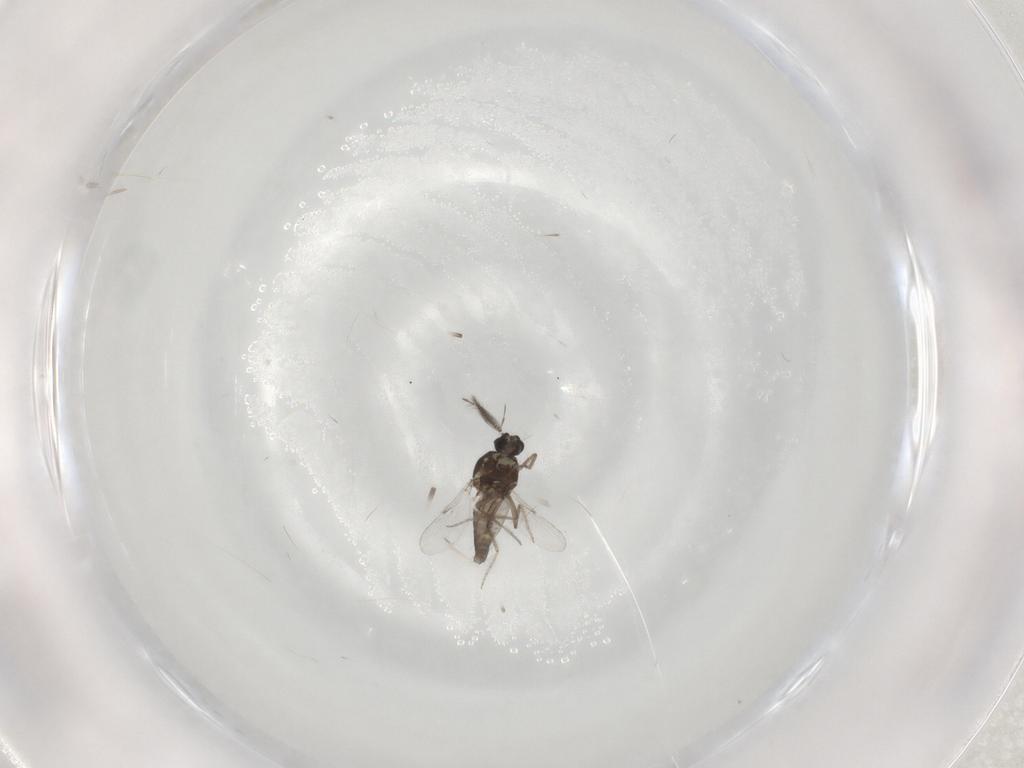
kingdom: Animalia
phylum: Arthropoda
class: Insecta
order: Diptera
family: Ceratopogonidae
